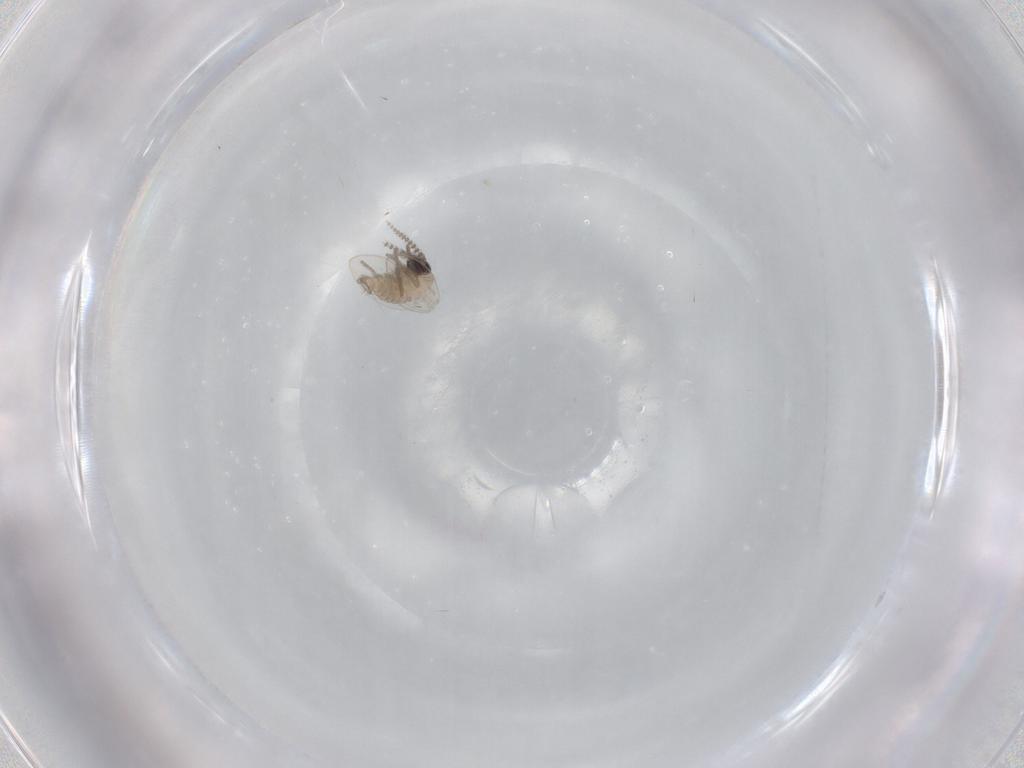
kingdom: Animalia
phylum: Arthropoda
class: Insecta
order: Diptera
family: Psychodidae
